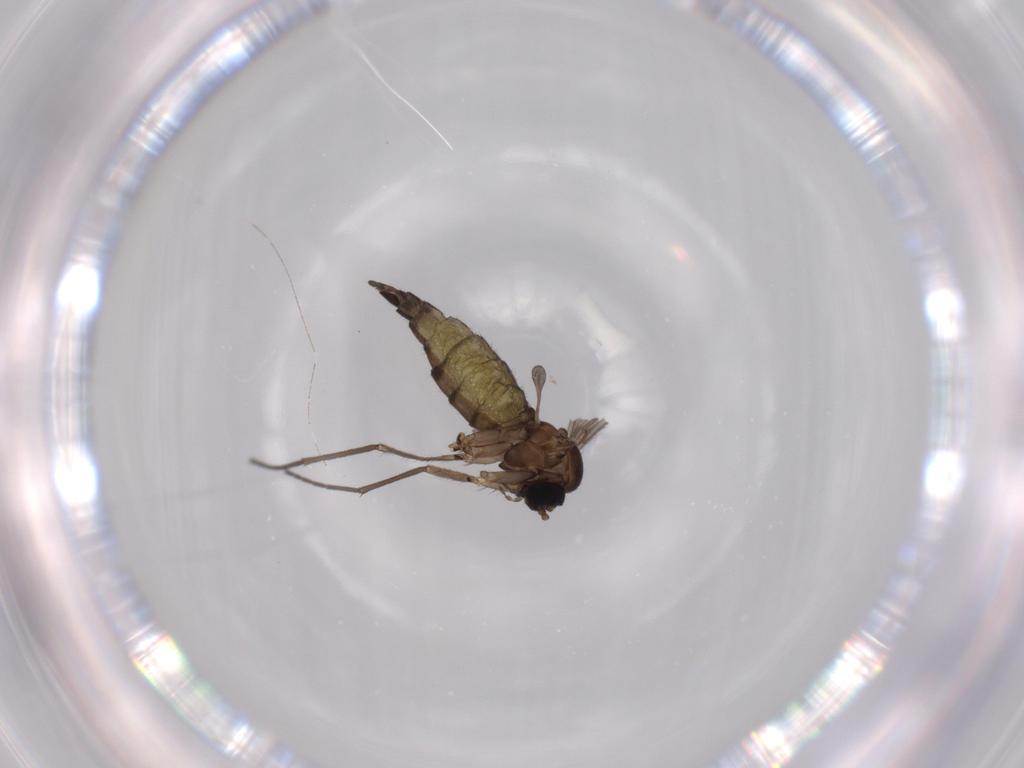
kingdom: Animalia
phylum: Arthropoda
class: Insecta
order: Diptera
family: Sciaridae
